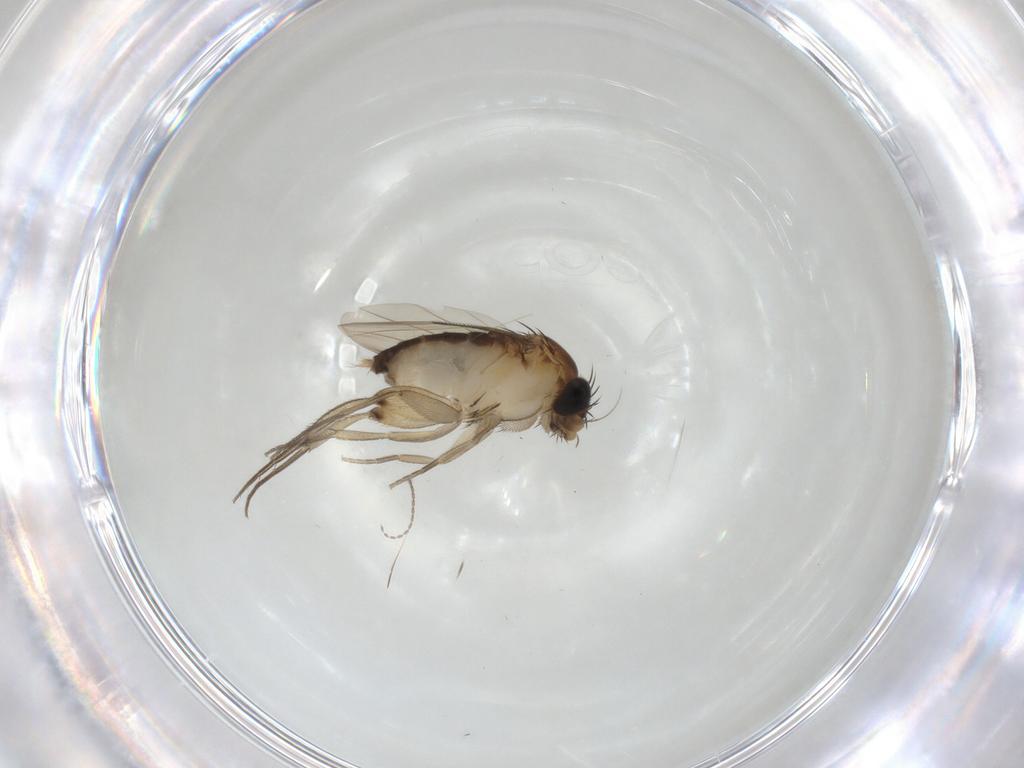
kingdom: Animalia
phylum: Arthropoda
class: Insecta
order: Diptera
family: Phoridae
